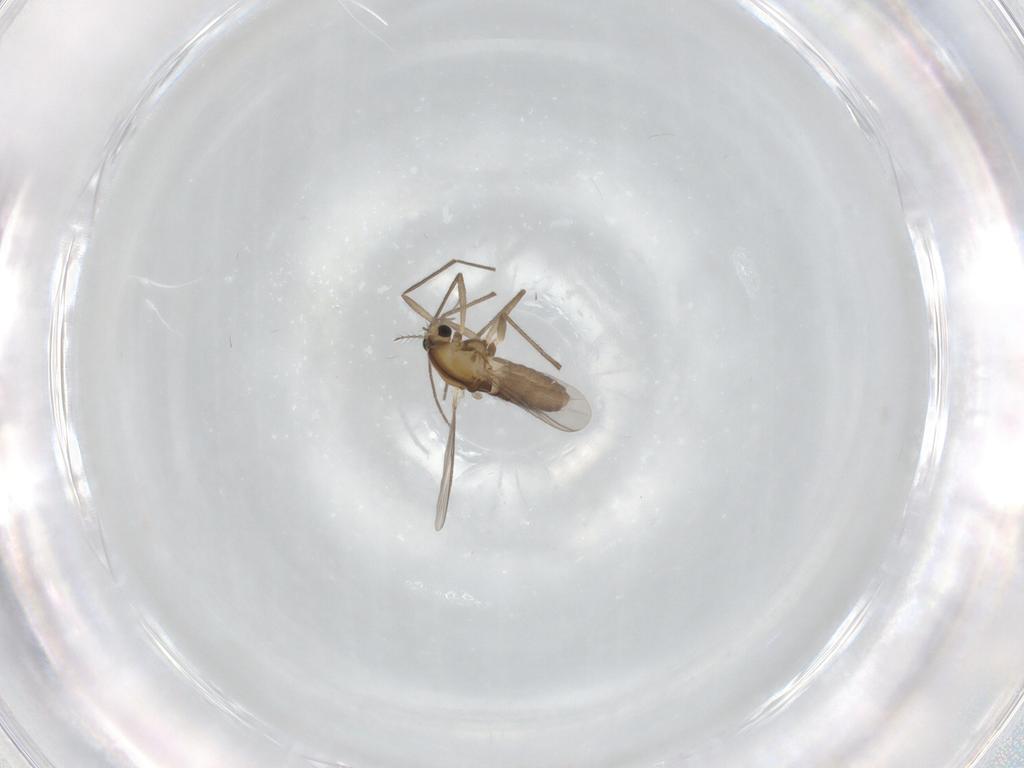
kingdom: Animalia
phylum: Arthropoda
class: Insecta
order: Diptera
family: Chironomidae
